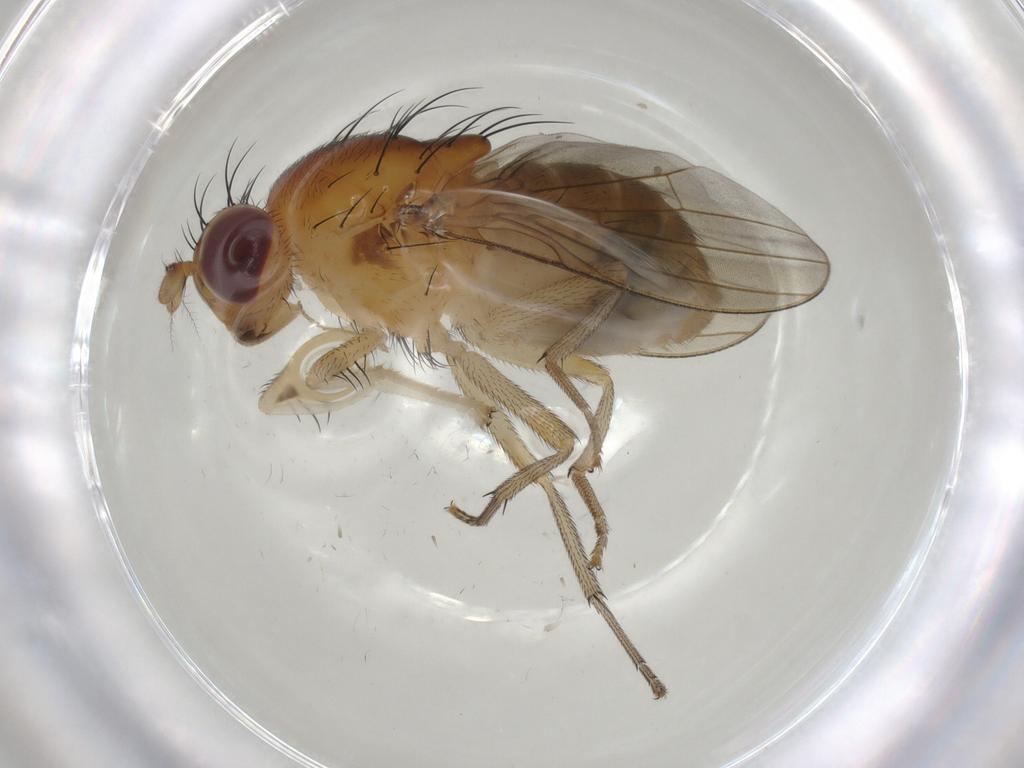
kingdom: Animalia
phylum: Arthropoda
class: Insecta
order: Diptera
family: Lauxaniidae
